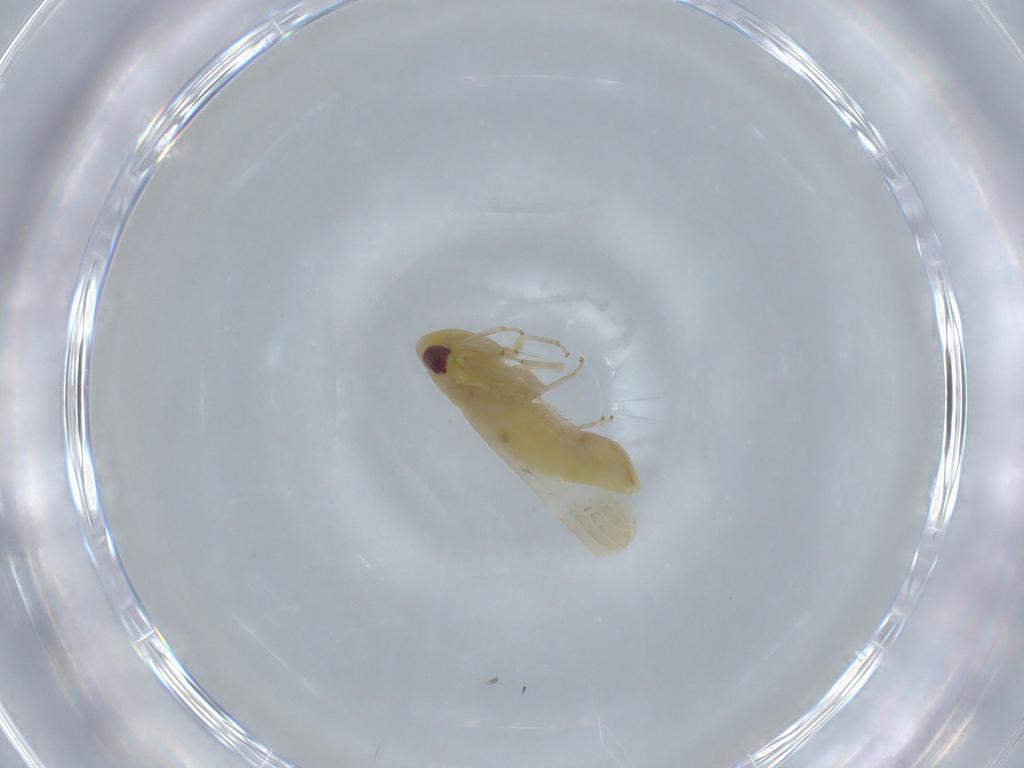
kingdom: Animalia
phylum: Arthropoda
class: Insecta
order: Hemiptera
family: Cicadellidae
